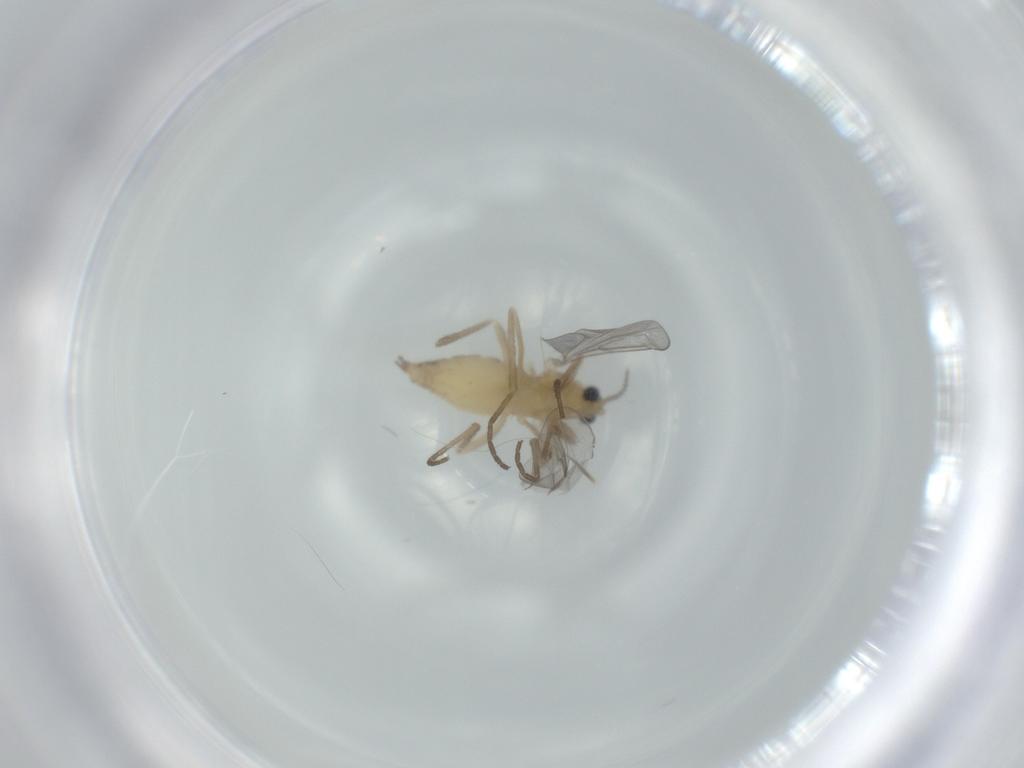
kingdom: Animalia
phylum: Arthropoda
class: Insecta
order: Diptera
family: Cecidomyiidae
